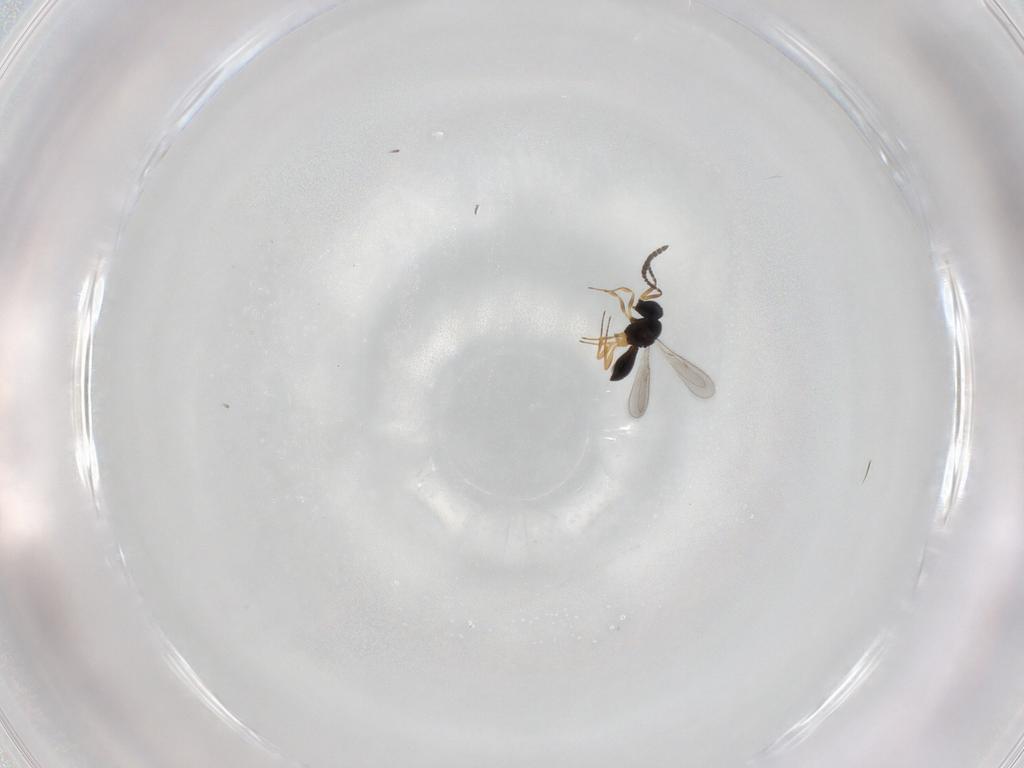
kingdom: Animalia
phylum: Arthropoda
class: Insecta
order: Hymenoptera
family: Scelionidae
